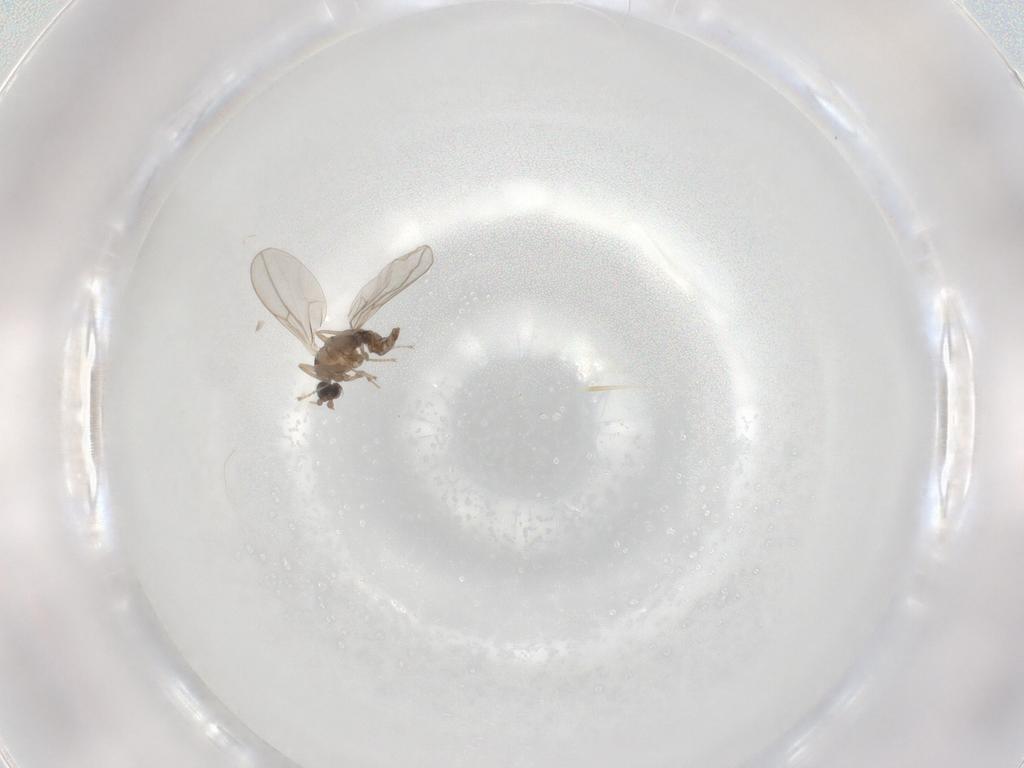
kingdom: Animalia
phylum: Arthropoda
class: Insecta
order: Diptera
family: Cecidomyiidae
